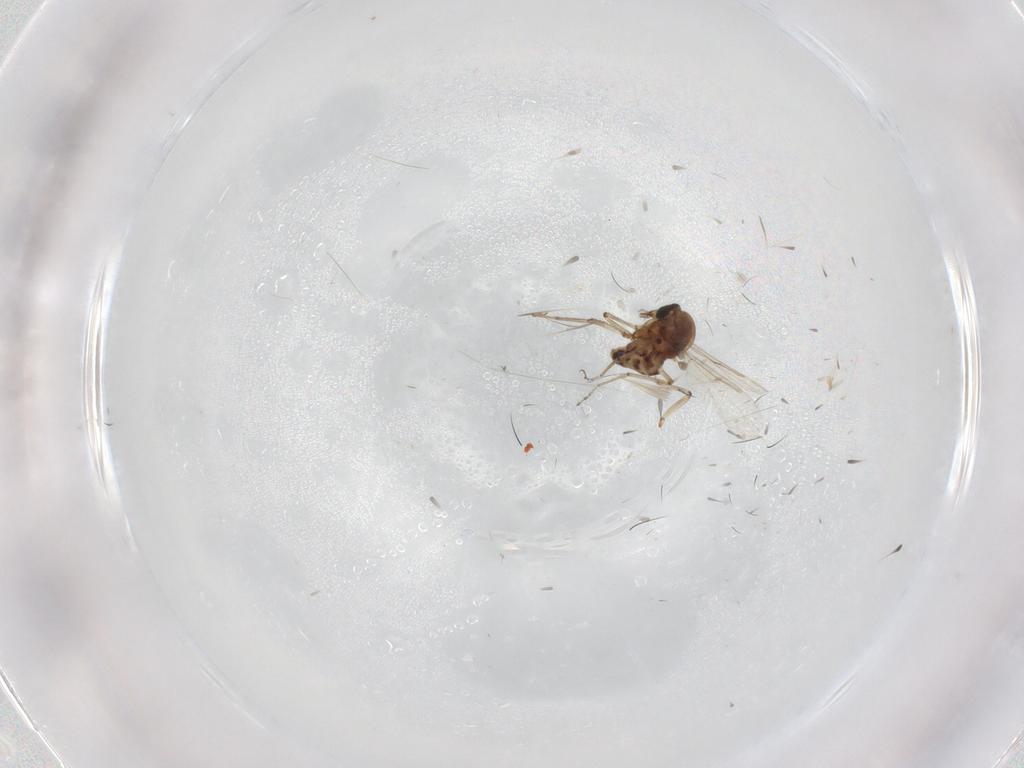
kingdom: Animalia
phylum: Arthropoda
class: Insecta
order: Diptera
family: Ceratopogonidae
